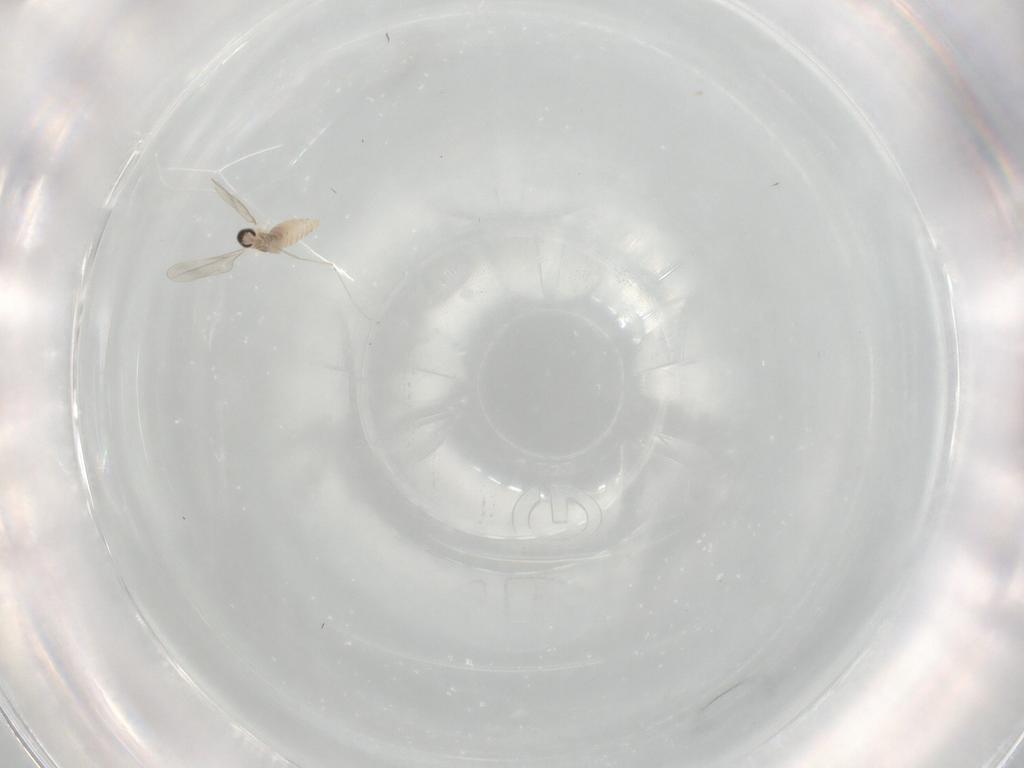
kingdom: Animalia
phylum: Arthropoda
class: Insecta
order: Diptera
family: Cecidomyiidae
